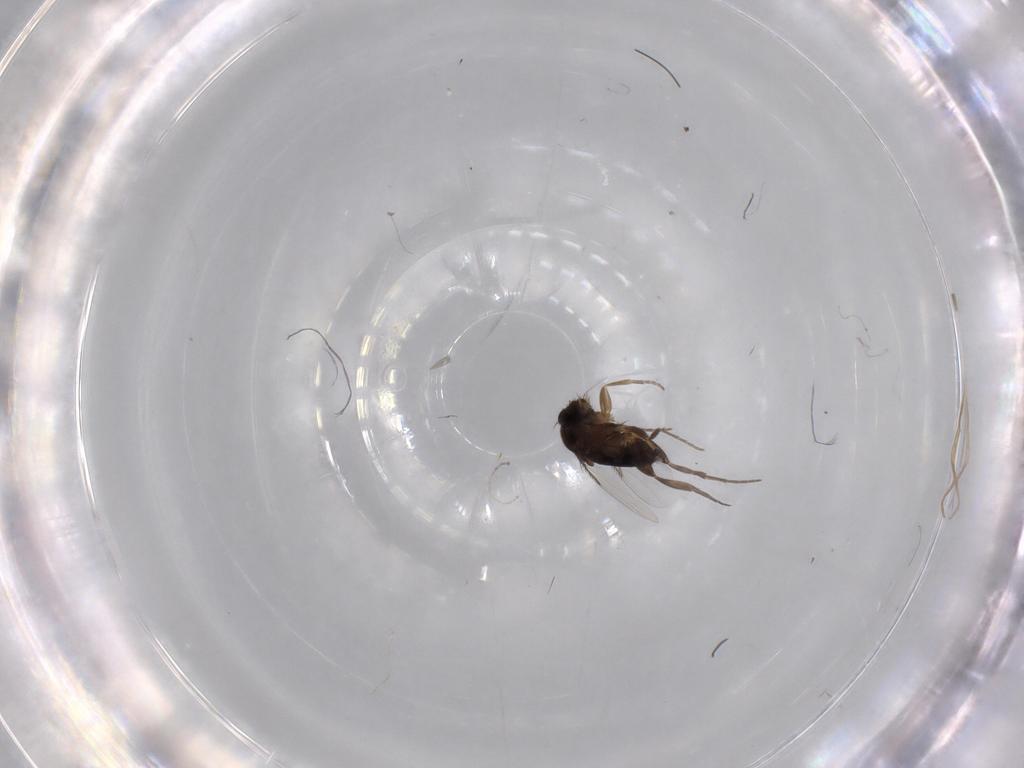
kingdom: Animalia
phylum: Arthropoda
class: Insecta
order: Diptera
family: Phoridae
